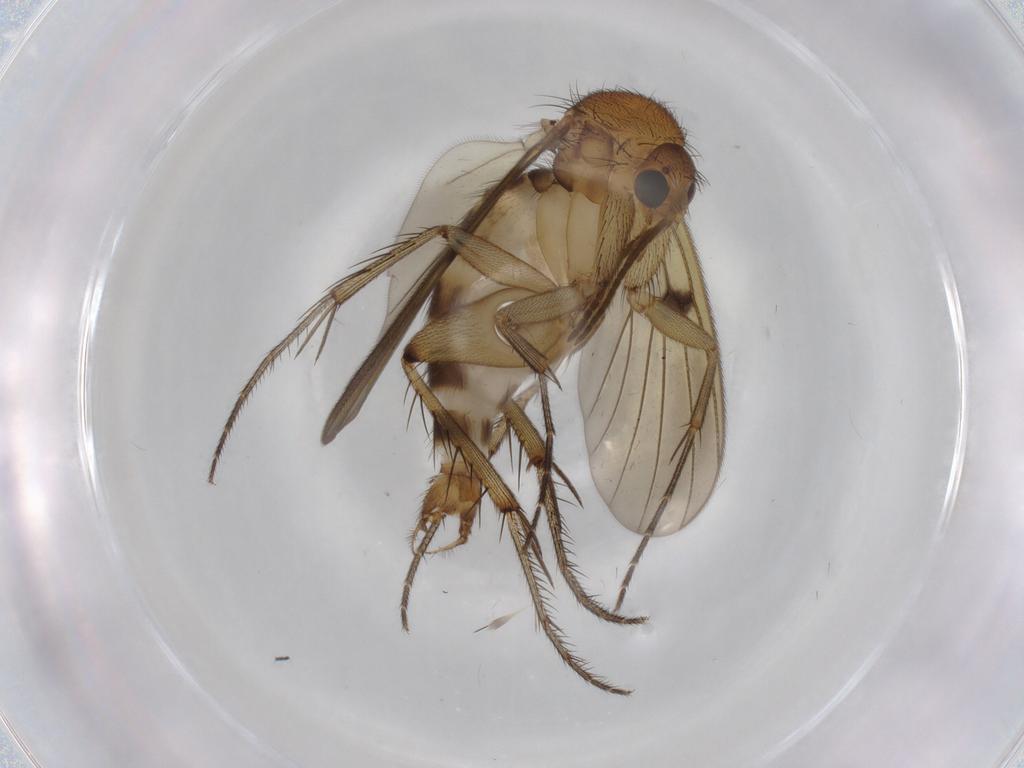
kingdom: Animalia
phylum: Arthropoda
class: Insecta
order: Diptera
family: Mycetophilidae
